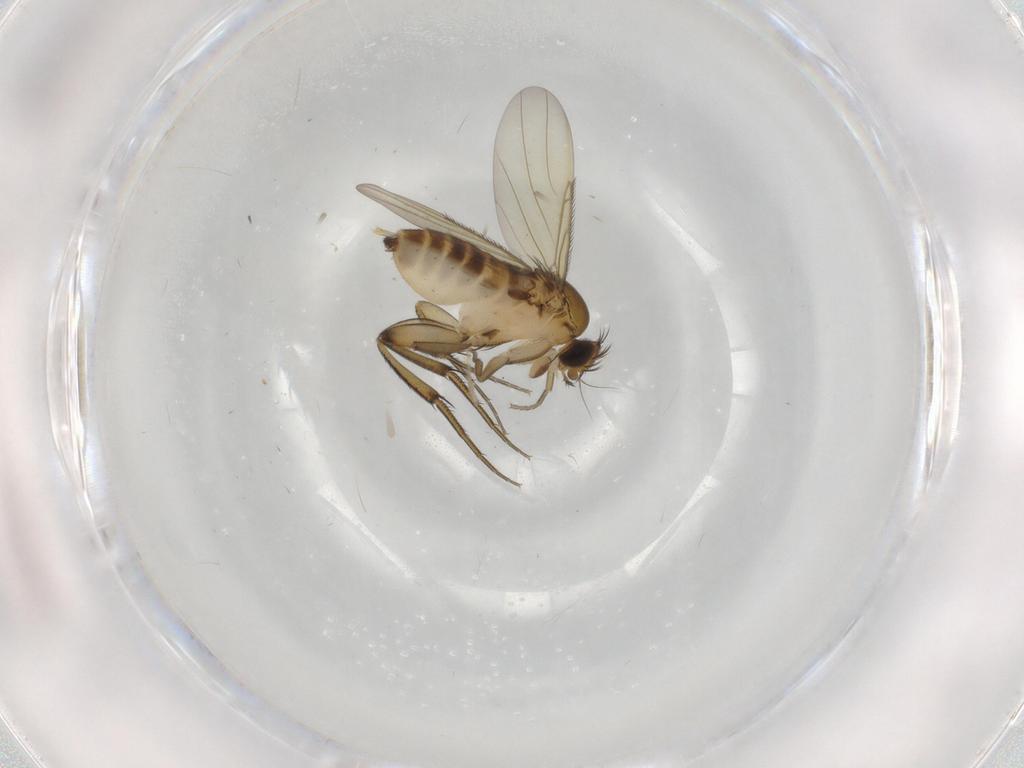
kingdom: Animalia
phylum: Arthropoda
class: Insecta
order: Diptera
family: Phoridae
